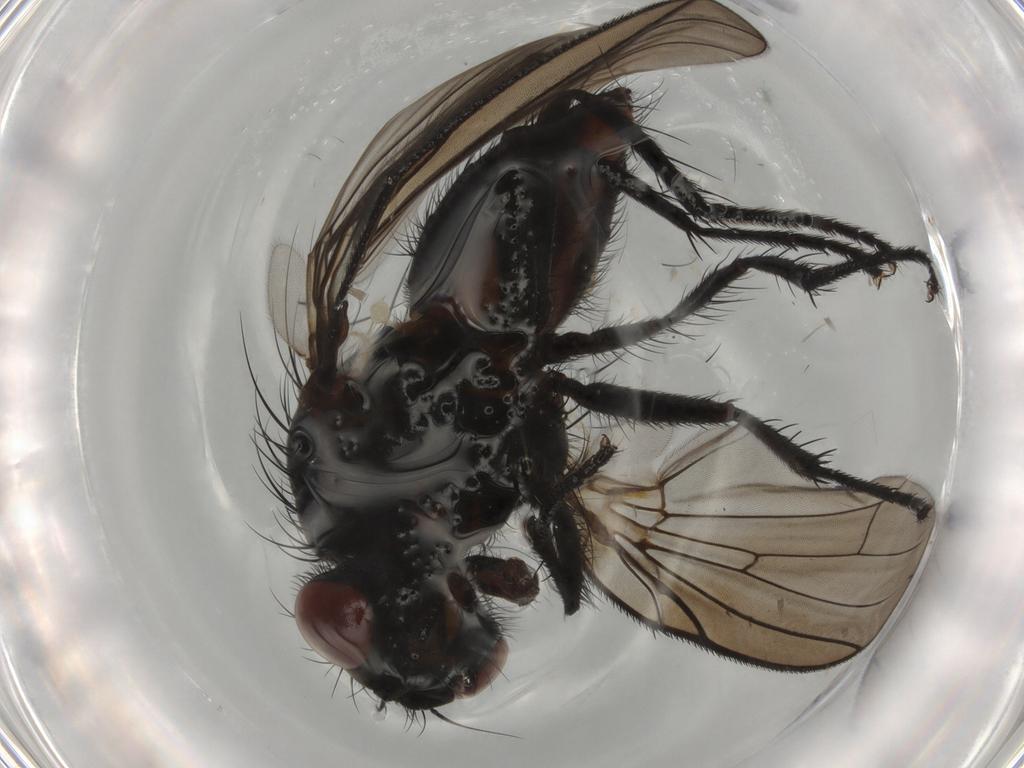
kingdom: Animalia
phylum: Arthropoda
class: Insecta
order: Diptera
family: Anthomyiidae
